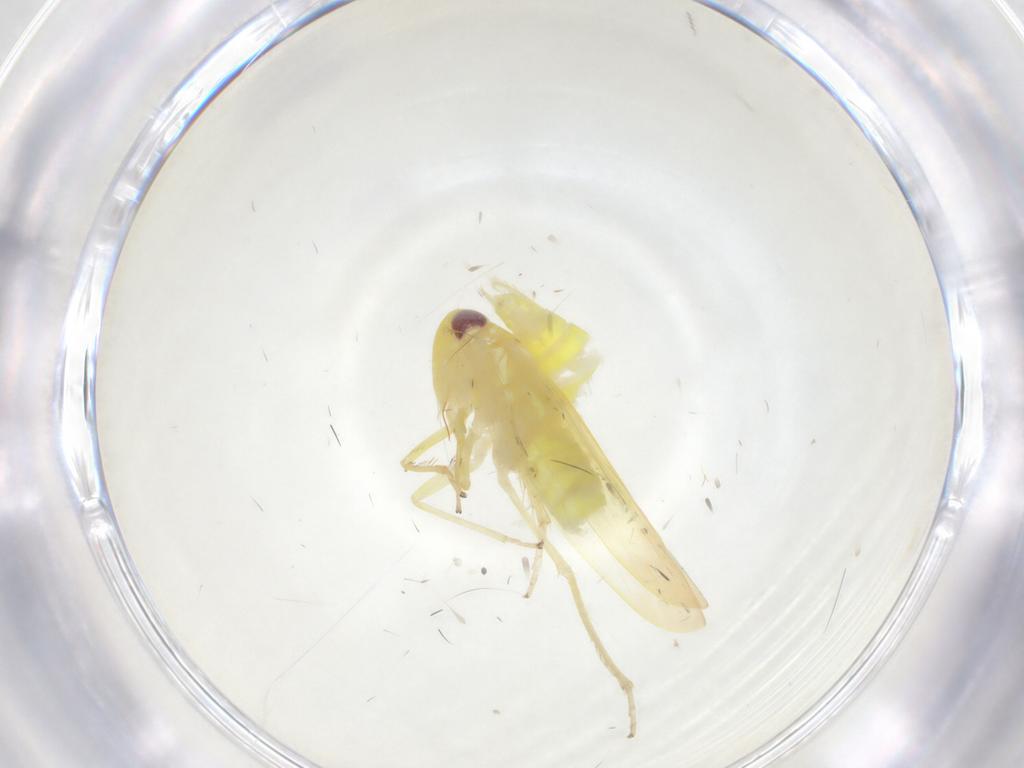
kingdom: Animalia
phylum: Arthropoda
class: Insecta
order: Hemiptera
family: Cicadellidae
